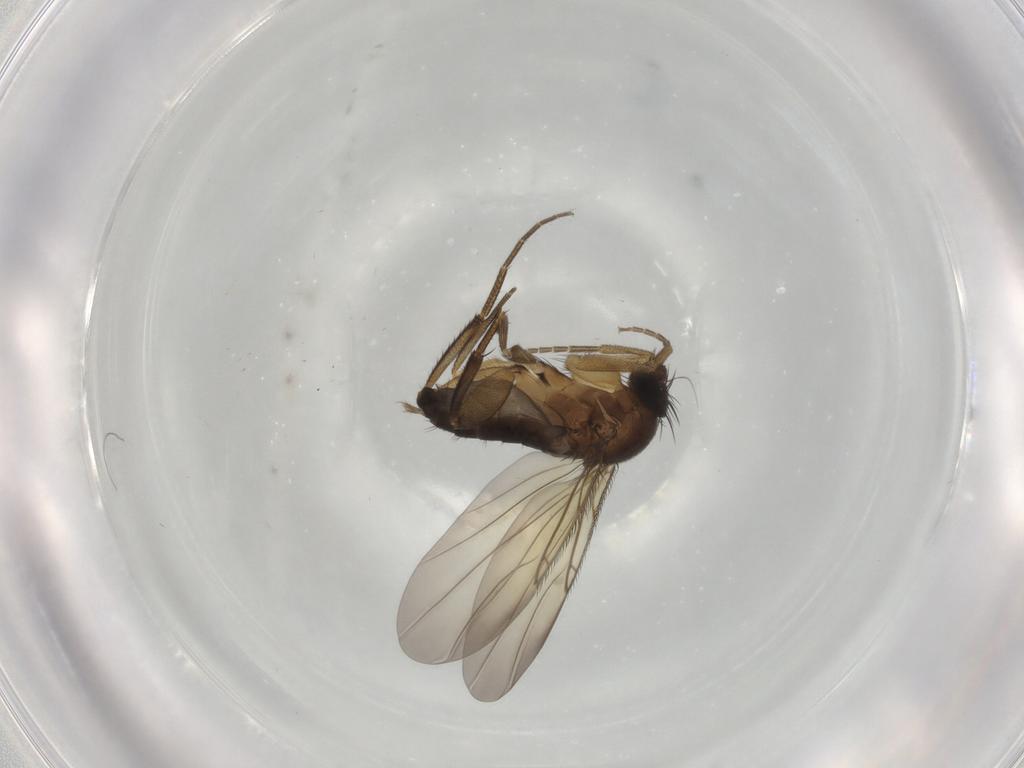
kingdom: Animalia
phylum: Arthropoda
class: Insecta
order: Diptera
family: Phoridae
